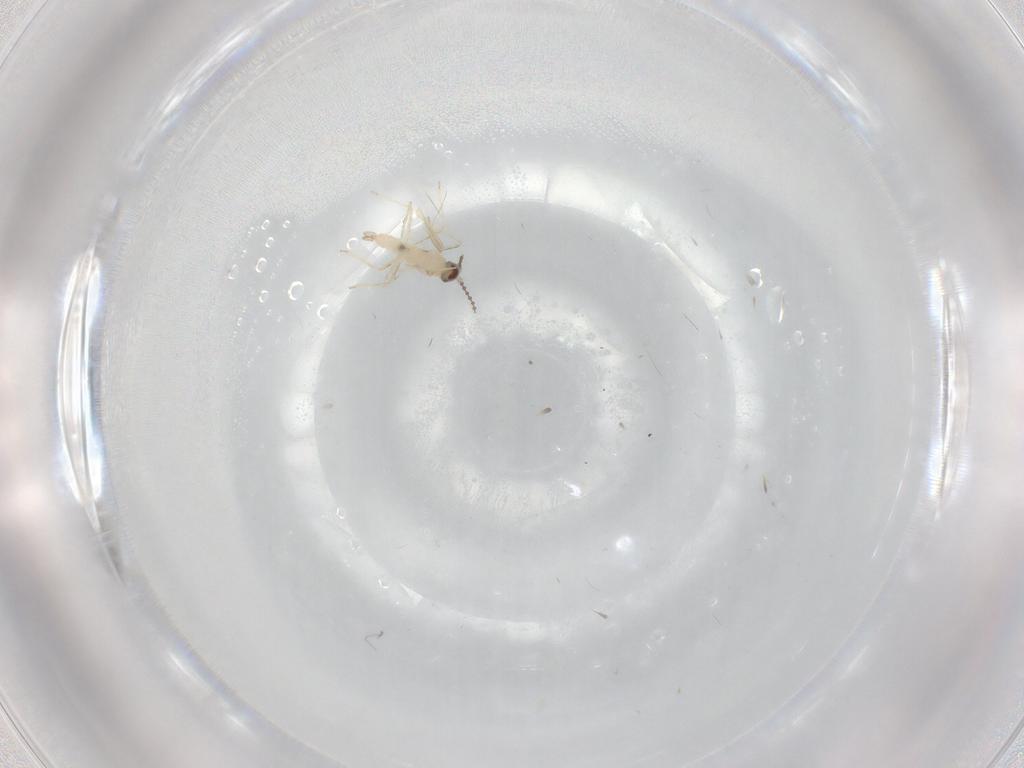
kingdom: Animalia
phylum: Arthropoda
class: Insecta
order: Diptera
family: Cecidomyiidae
